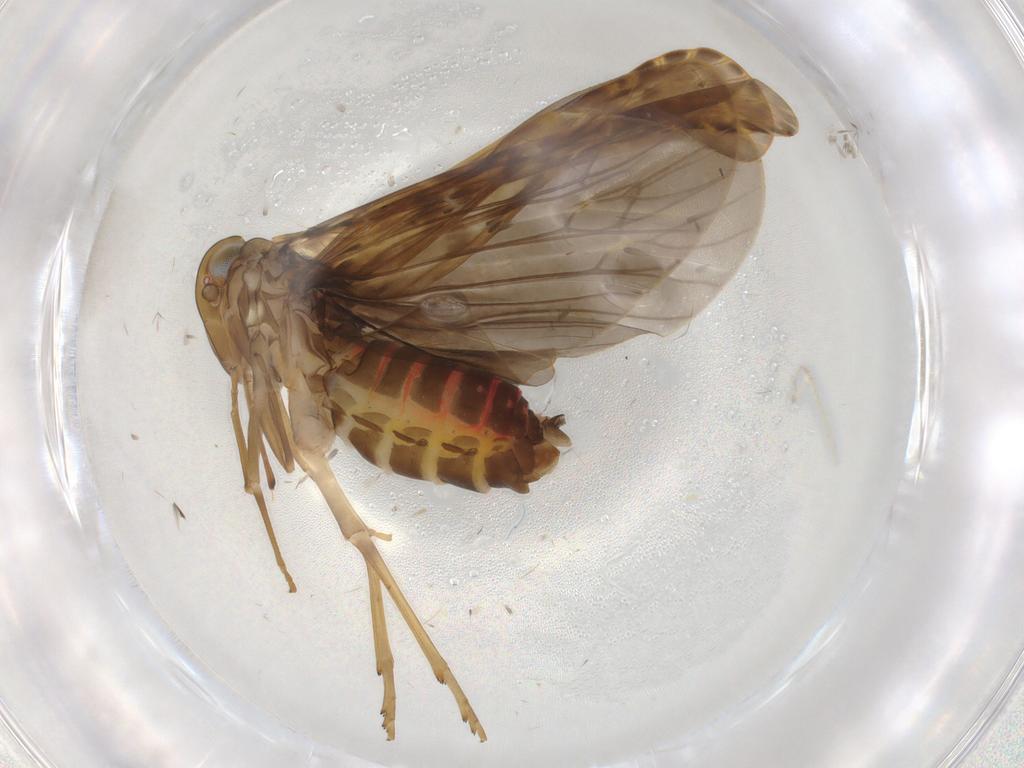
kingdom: Animalia
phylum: Arthropoda
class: Insecta
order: Hemiptera
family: Achilidae
